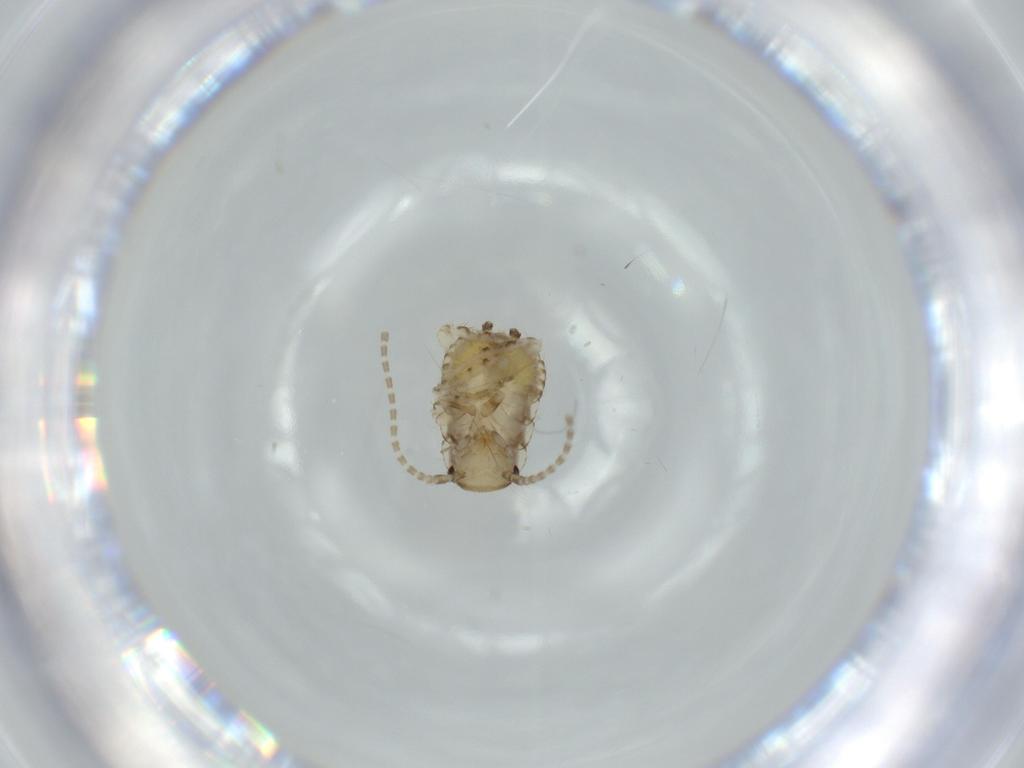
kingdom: Animalia
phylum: Arthropoda
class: Insecta
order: Blattodea
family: Ectobiidae
